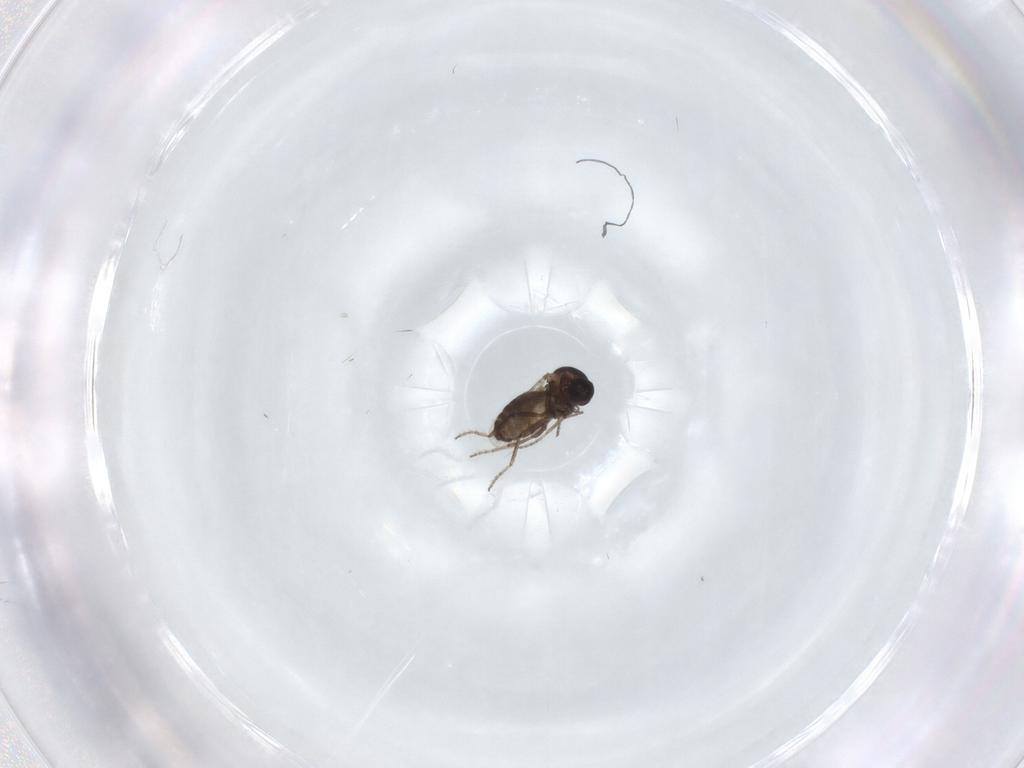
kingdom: Animalia
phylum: Arthropoda
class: Insecta
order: Diptera
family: Ceratopogonidae
